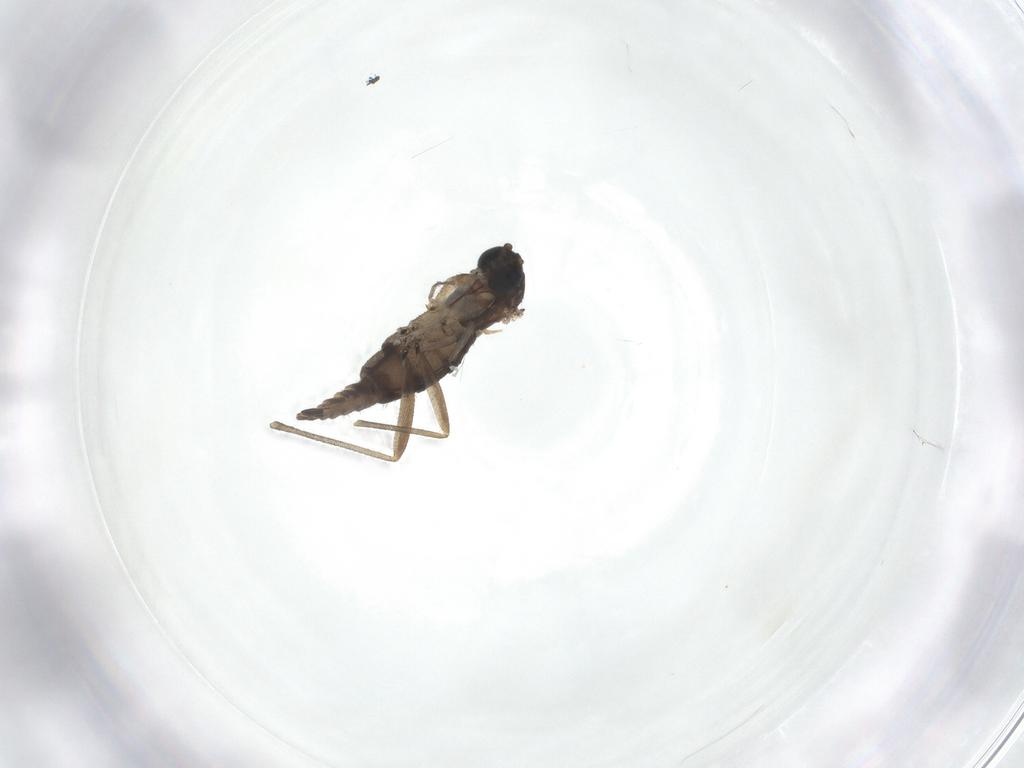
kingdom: Animalia
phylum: Arthropoda
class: Insecta
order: Diptera
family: Sciaridae
